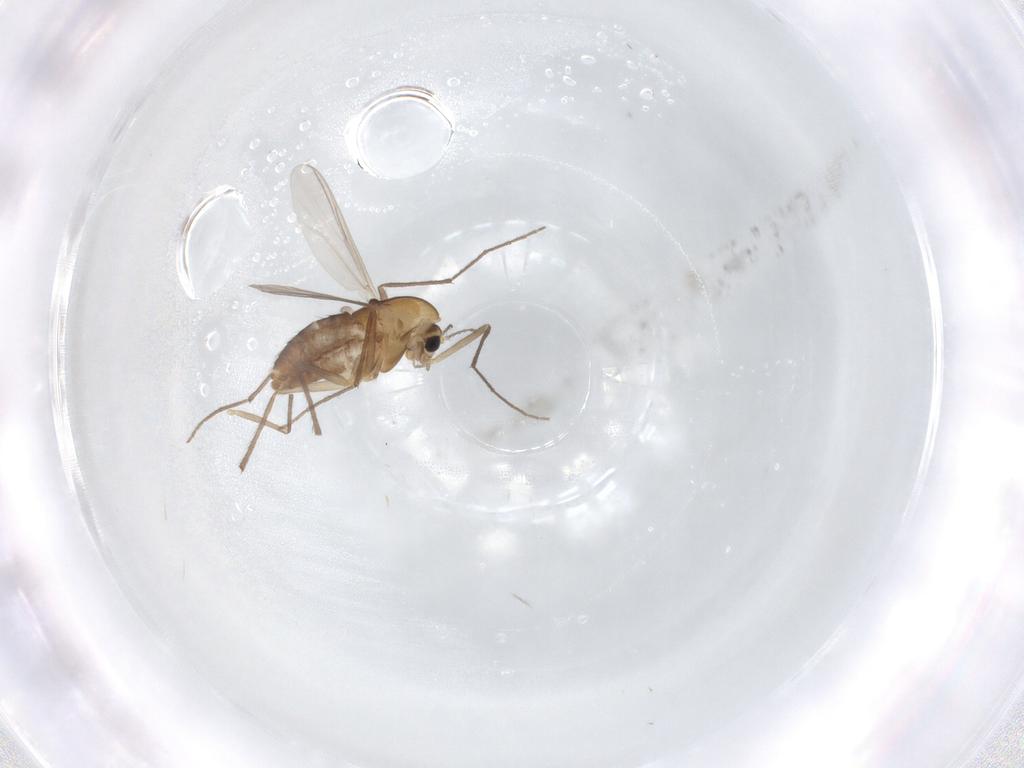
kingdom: Animalia
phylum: Arthropoda
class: Insecta
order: Diptera
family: Chironomidae
